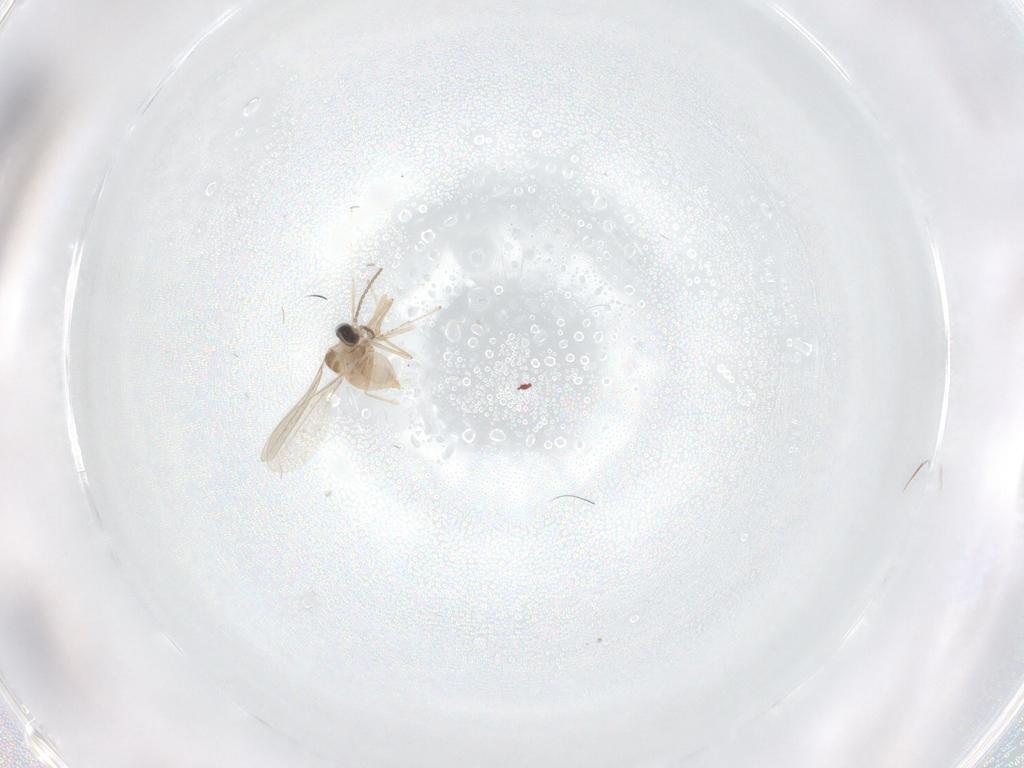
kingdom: Animalia
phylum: Arthropoda
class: Insecta
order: Diptera
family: Cecidomyiidae
